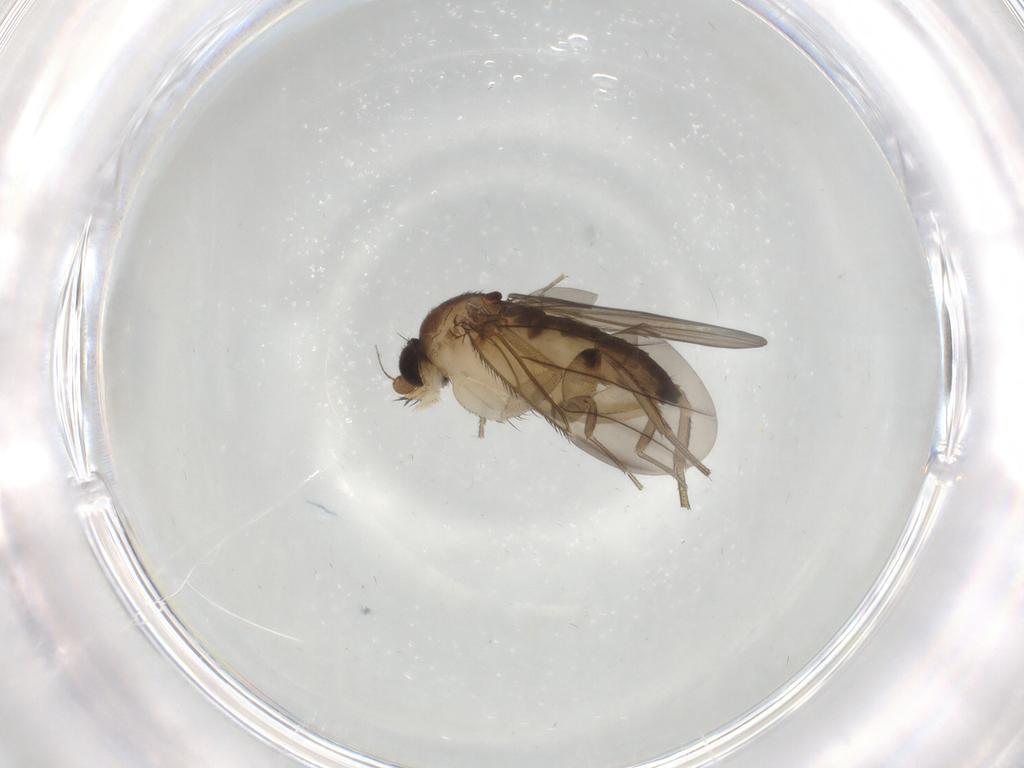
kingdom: Animalia
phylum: Arthropoda
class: Insecta
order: Diptera
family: Phoridae
